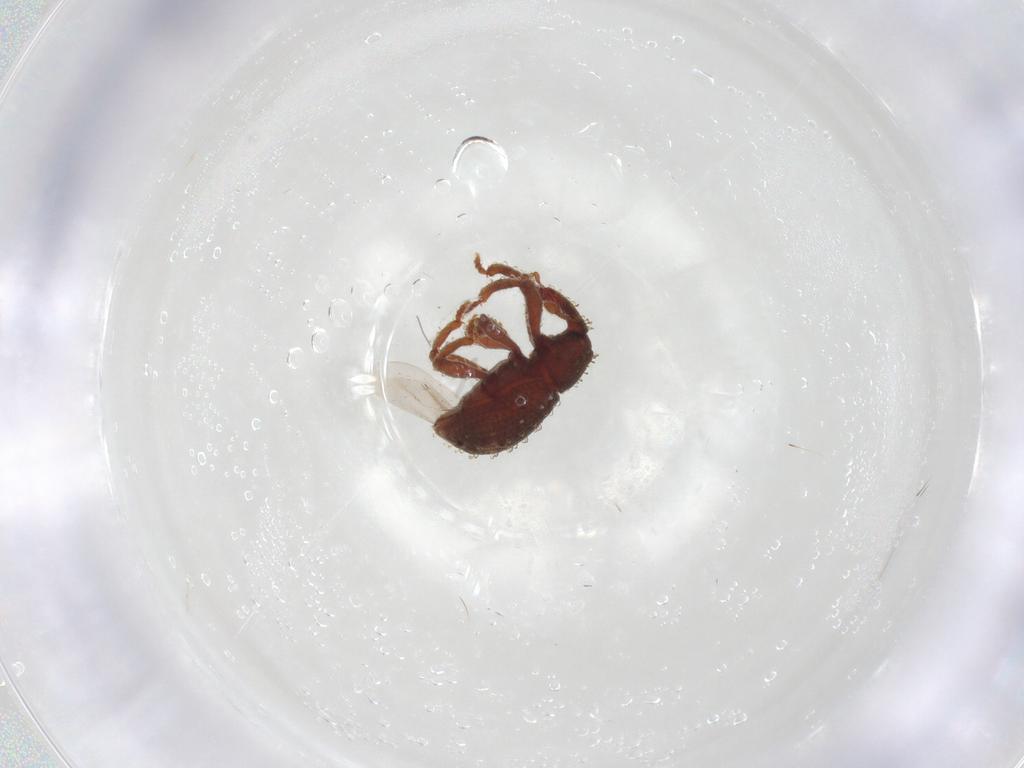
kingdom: Animalia
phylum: Arthropoda
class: Insecta
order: Coleoptera
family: Curculionidae
